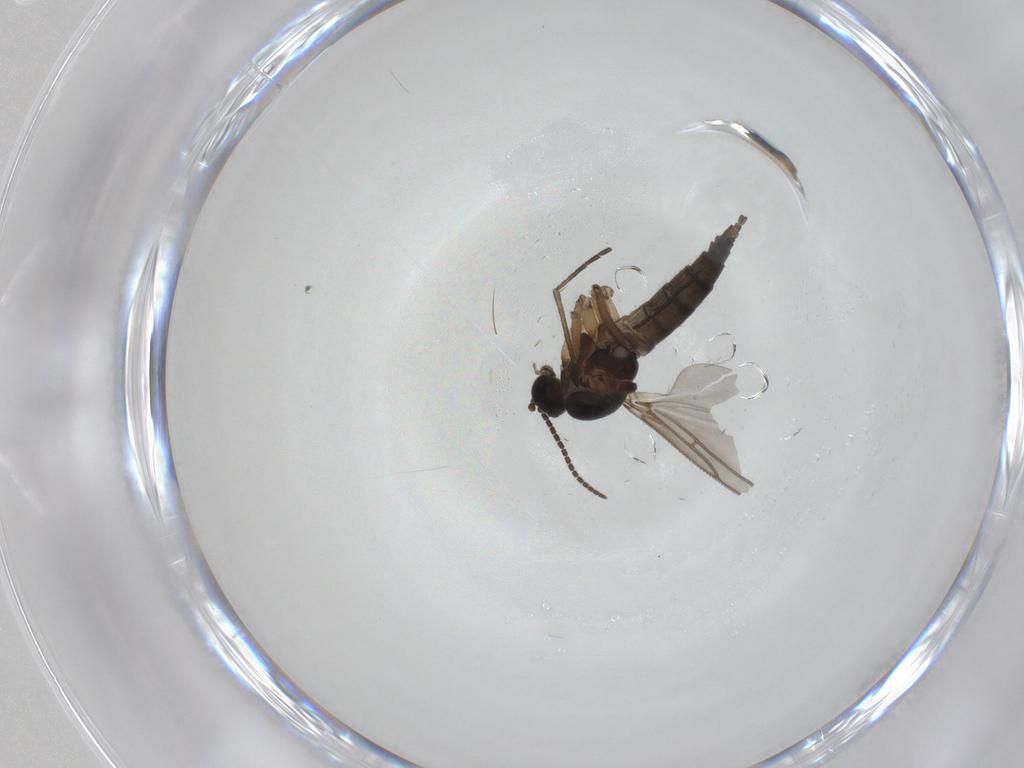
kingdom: Animalia
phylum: Arthropoda
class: Insecta
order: Diptera
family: Sciaridae
